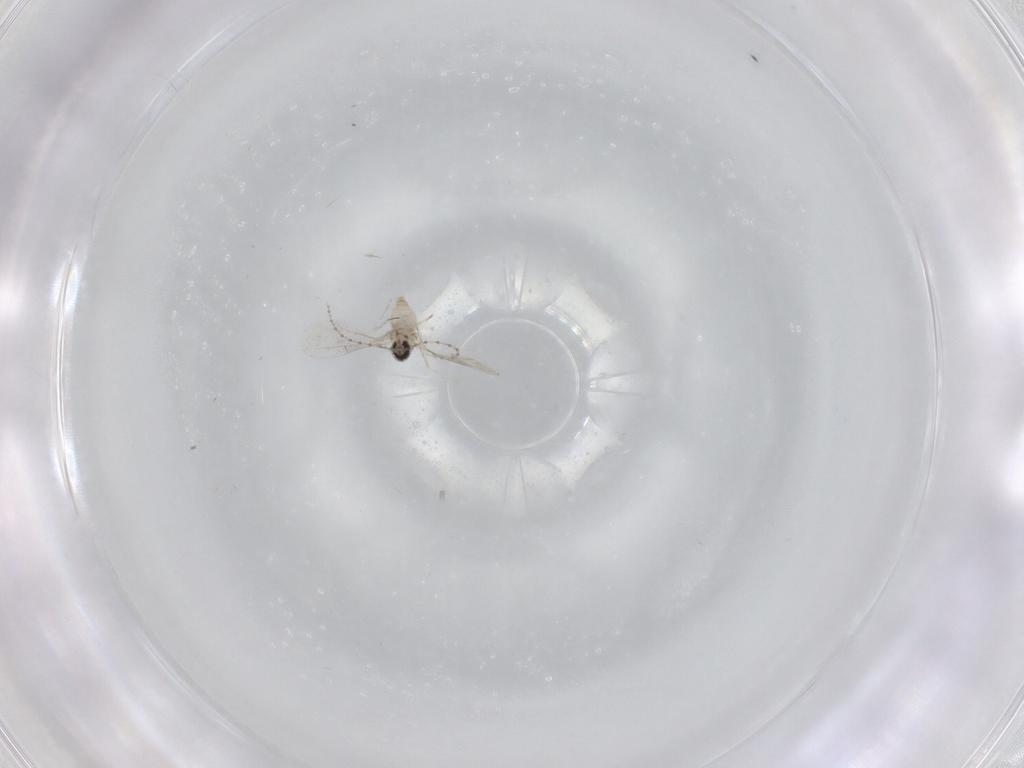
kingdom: Animalia
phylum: Arthropoda
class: Insecta
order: Diptera
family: Cecidomyiidae
